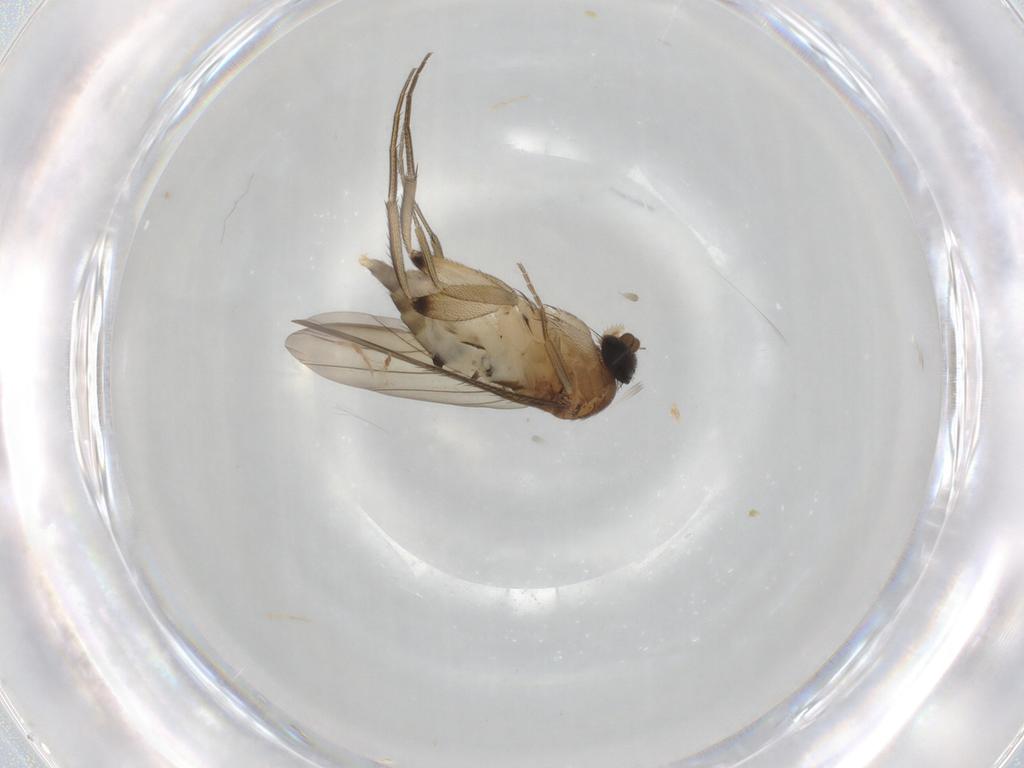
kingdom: Animalia
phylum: Arthropoda
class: Insecta
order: Diptera
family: Phoridae
